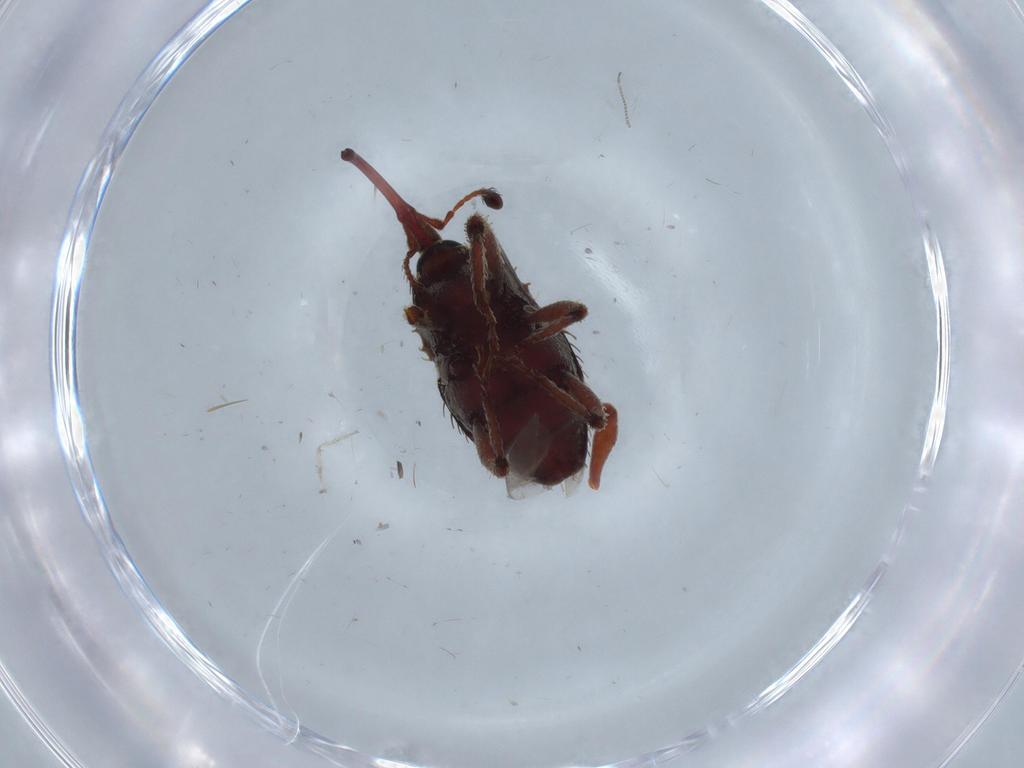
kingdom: Animalia
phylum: Arthropoda
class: Insecta
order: Coleoptera
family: Curculionidae
